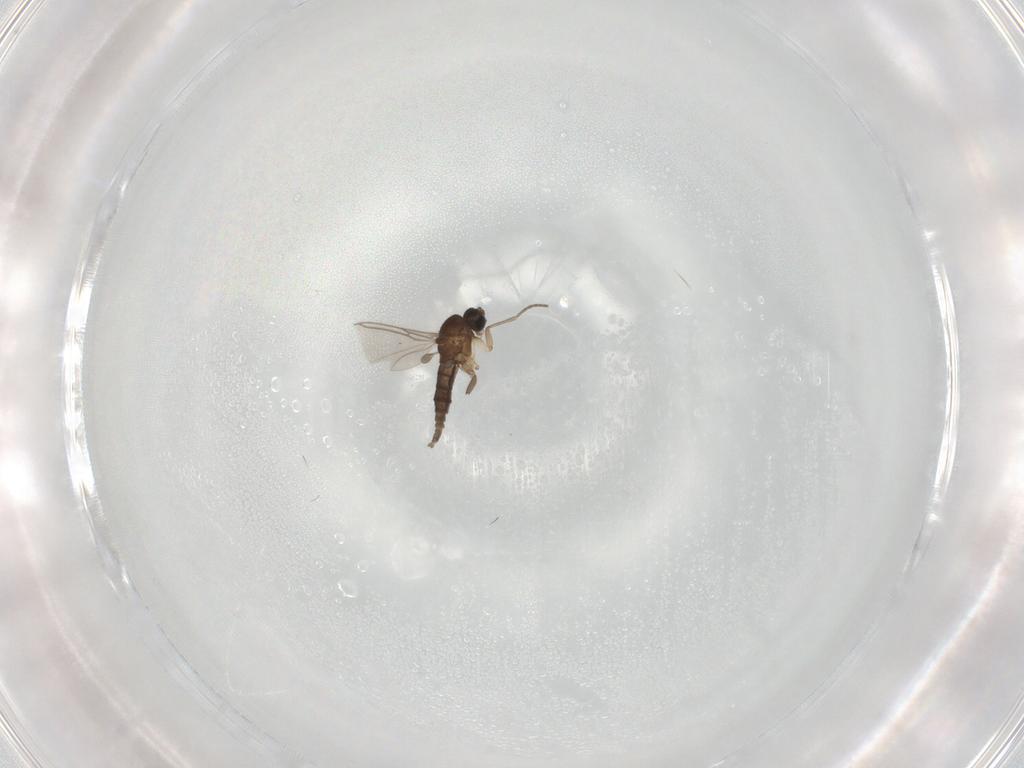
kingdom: Animalia
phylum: Arthropoda
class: Insecta
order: Diptera
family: Sciaridae
